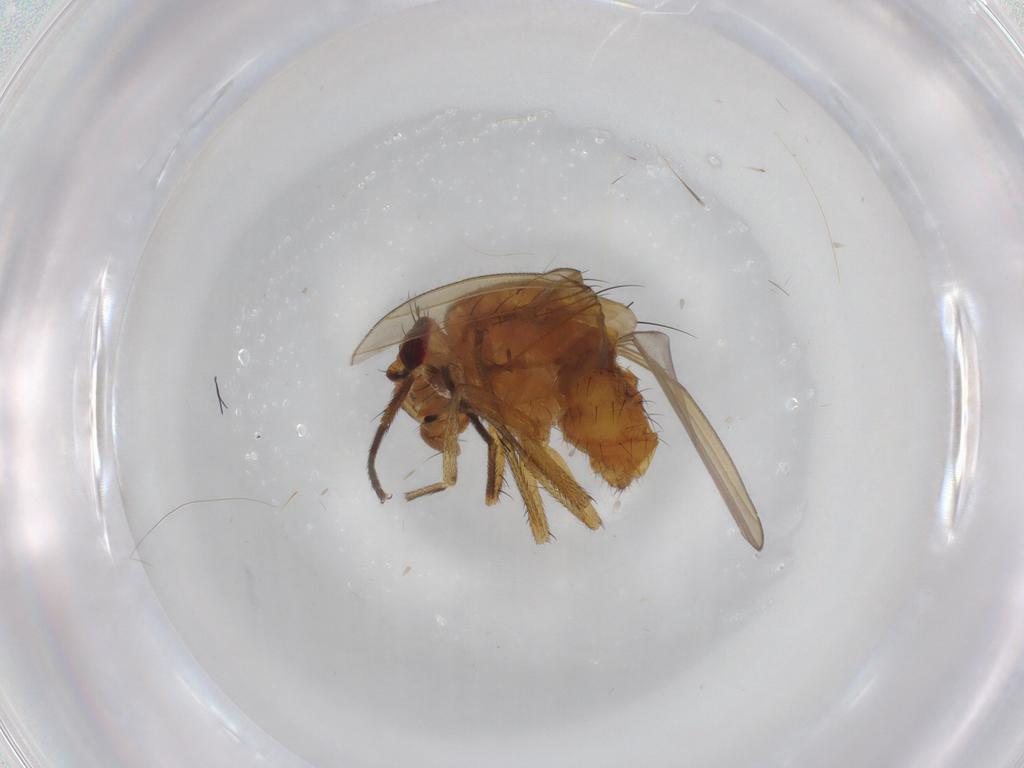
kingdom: Animalia
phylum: Arthropoda
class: Insecta
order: Diptera
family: Lauxaniidae
